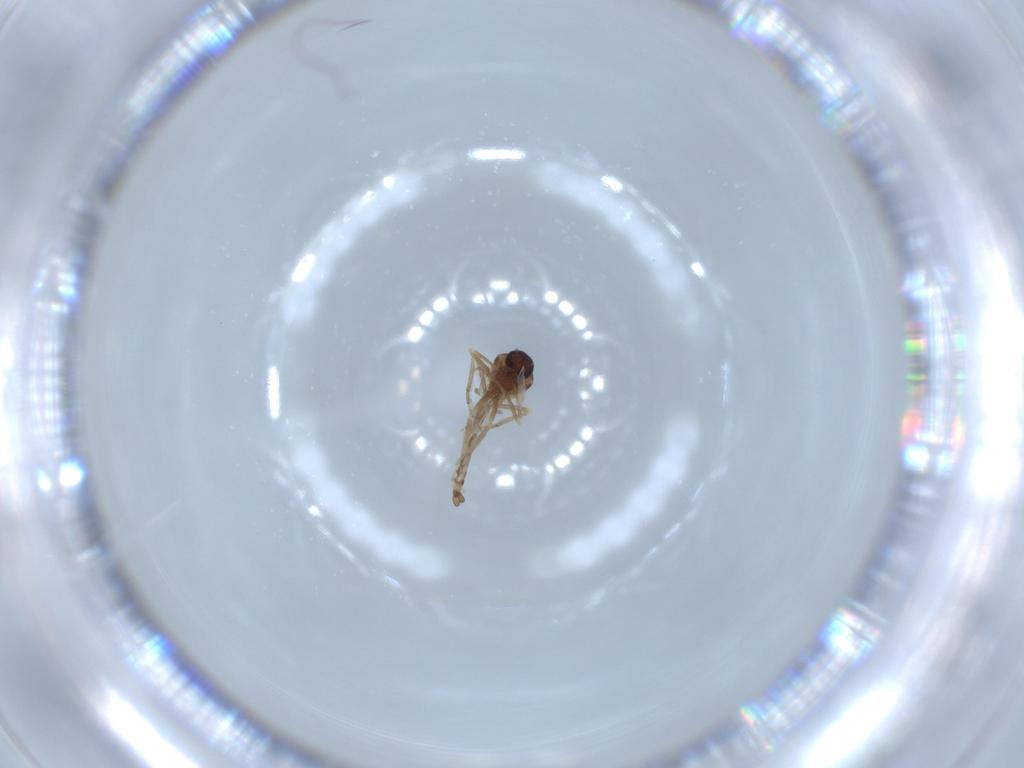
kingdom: Animalia
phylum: Arthropoda
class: Insecta
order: Diptera
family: Ceratopogonidae
